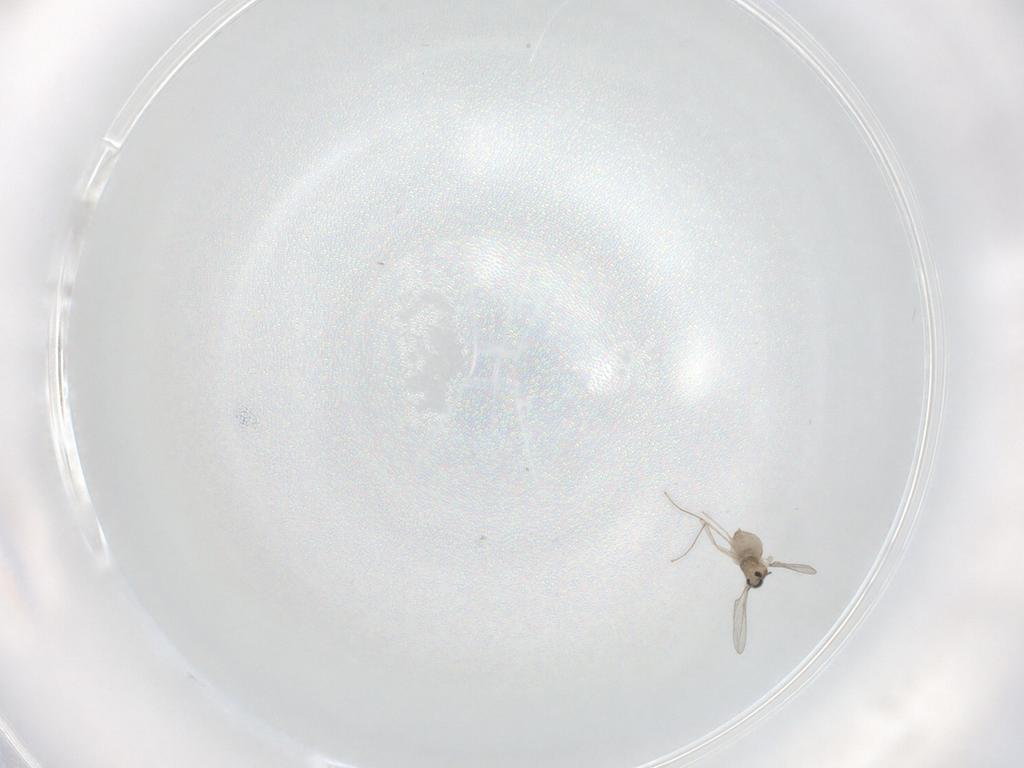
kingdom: Animalia
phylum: Arthropoda
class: Insecta
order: Diptera
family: Cecidomyiidae
